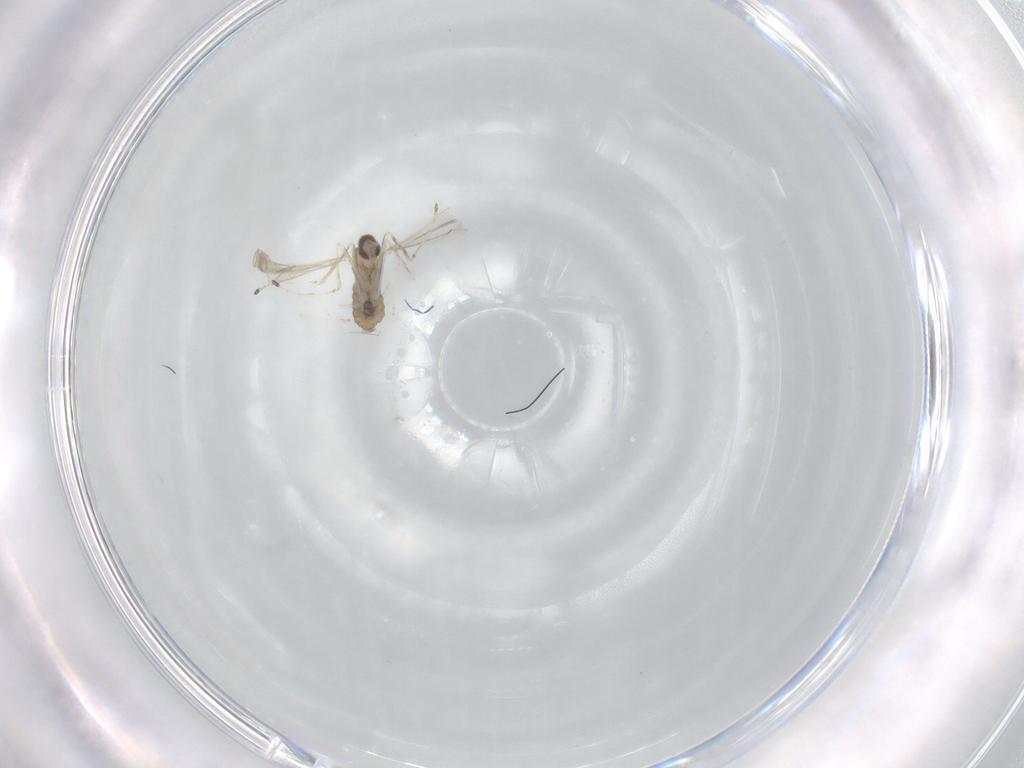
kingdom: Animalia
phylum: Arthropoda
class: Insecta
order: Diptera
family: Cecidomyiidae
